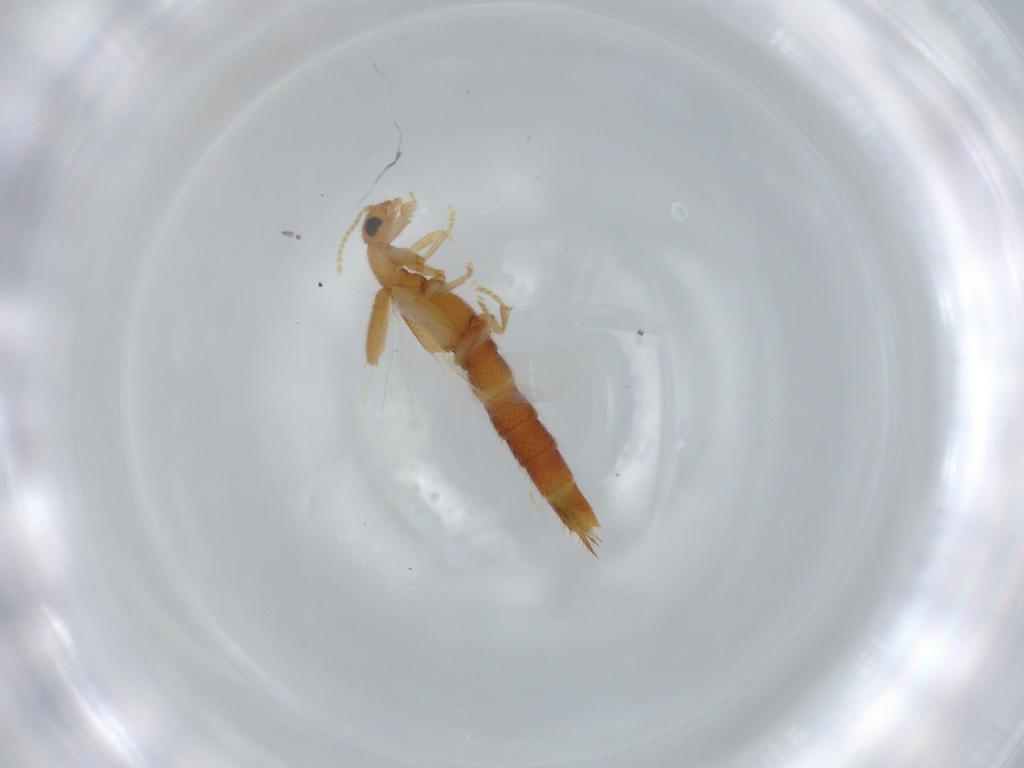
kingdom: Animalia
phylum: Arthropoda
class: Insecta
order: Coleoptera
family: Staphylinidae
